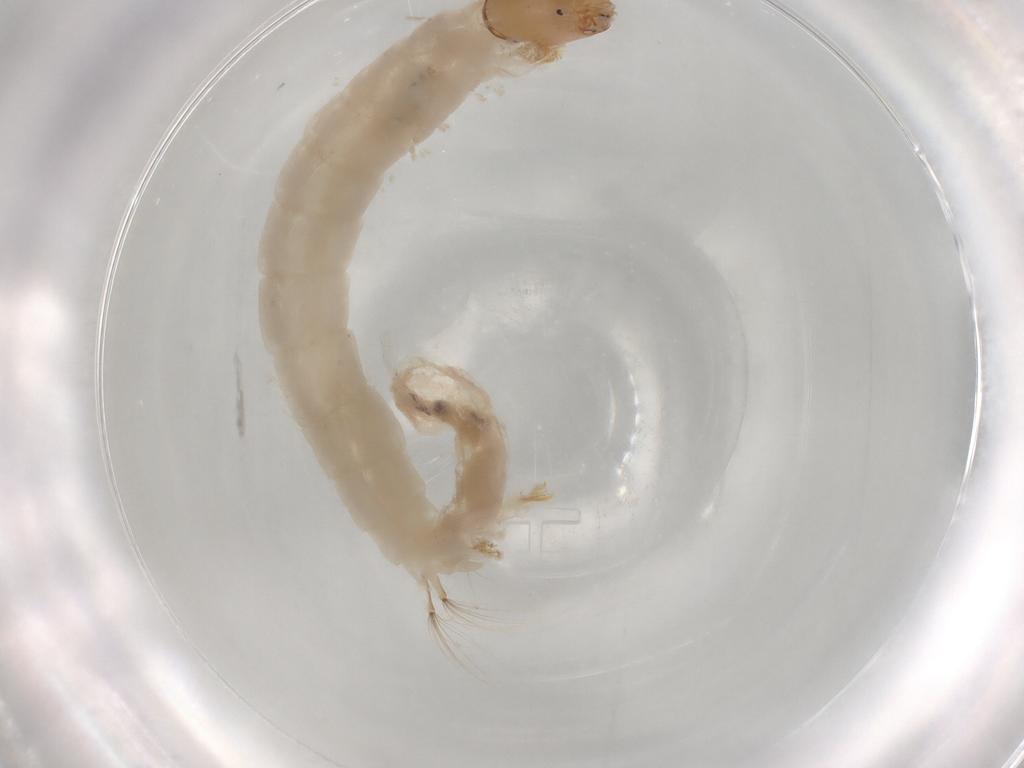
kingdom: Animalia
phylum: Arthropoda
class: Insecta
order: Diptera
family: Chironomidae
